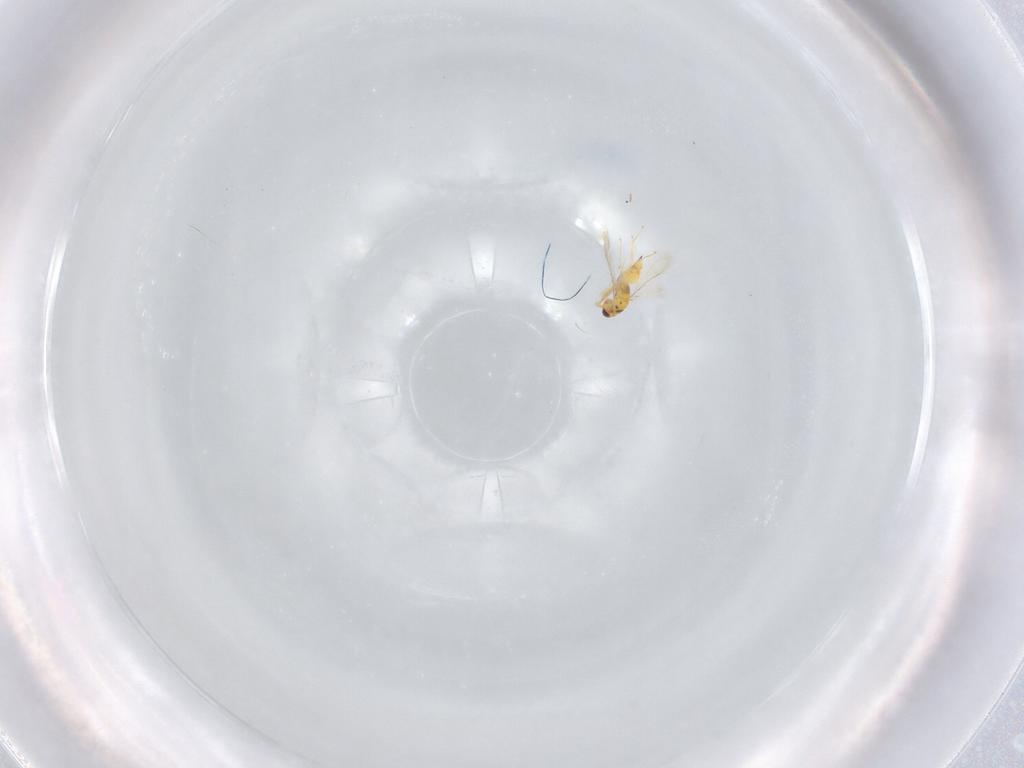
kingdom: Animalia
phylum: Arthropoda
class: Insecta
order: Hymenoptera
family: Mymaridae
